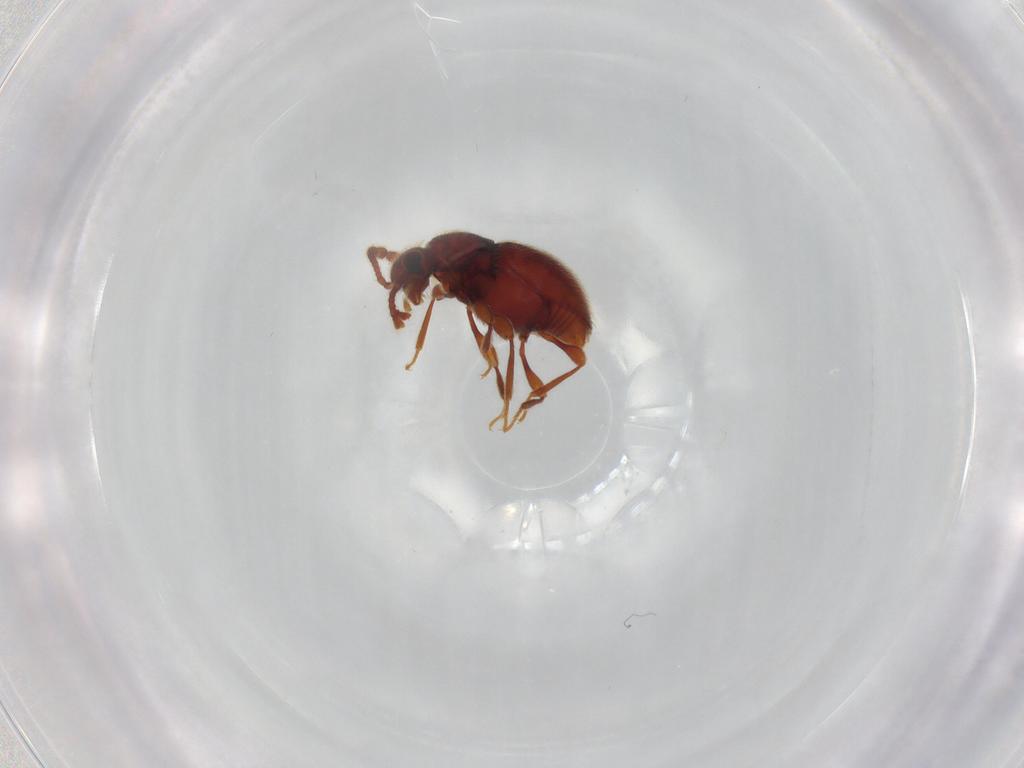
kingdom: Animalia
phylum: Arthropoda
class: Insecta
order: Coleoptera
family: Staphylinidae
